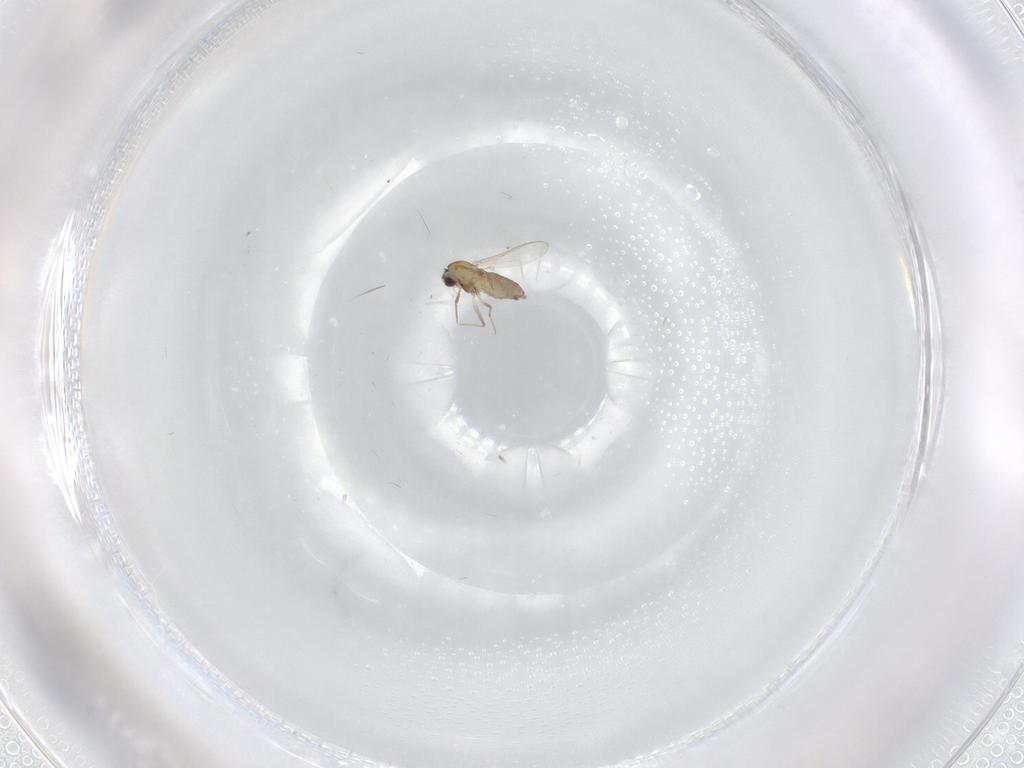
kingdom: Animalia
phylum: Arthropoda
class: Insecta
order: Diptera
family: Chironomidae
